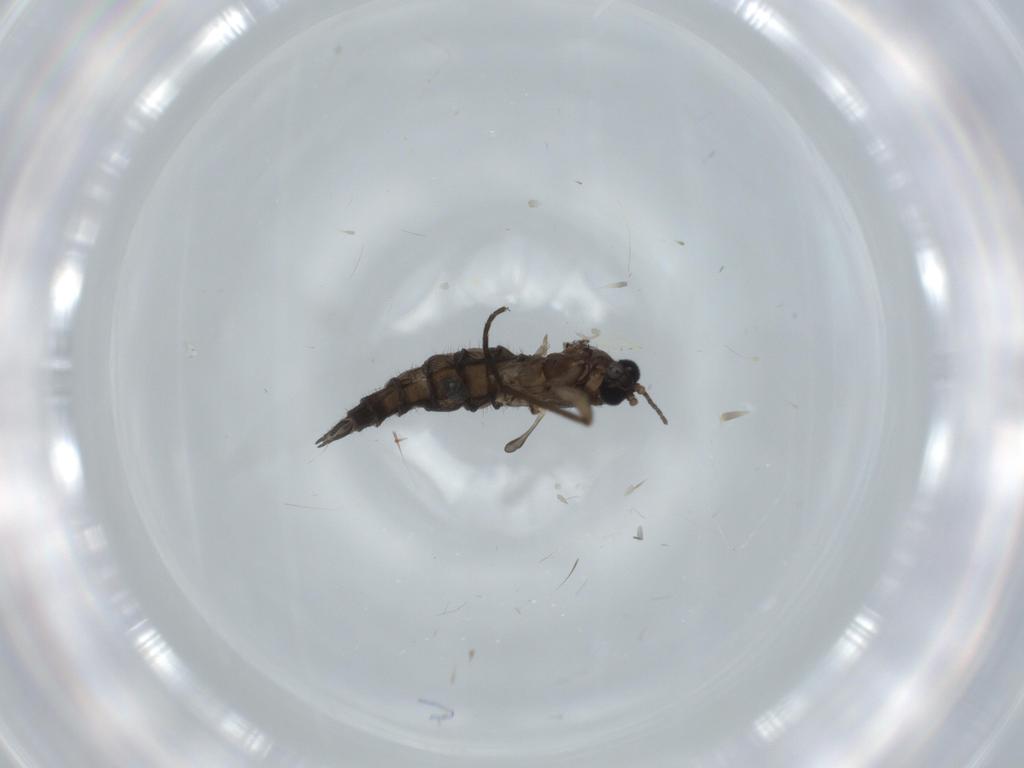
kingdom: Animalia
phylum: Arthropoda
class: Insecta
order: Diptera
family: Sciaridae
